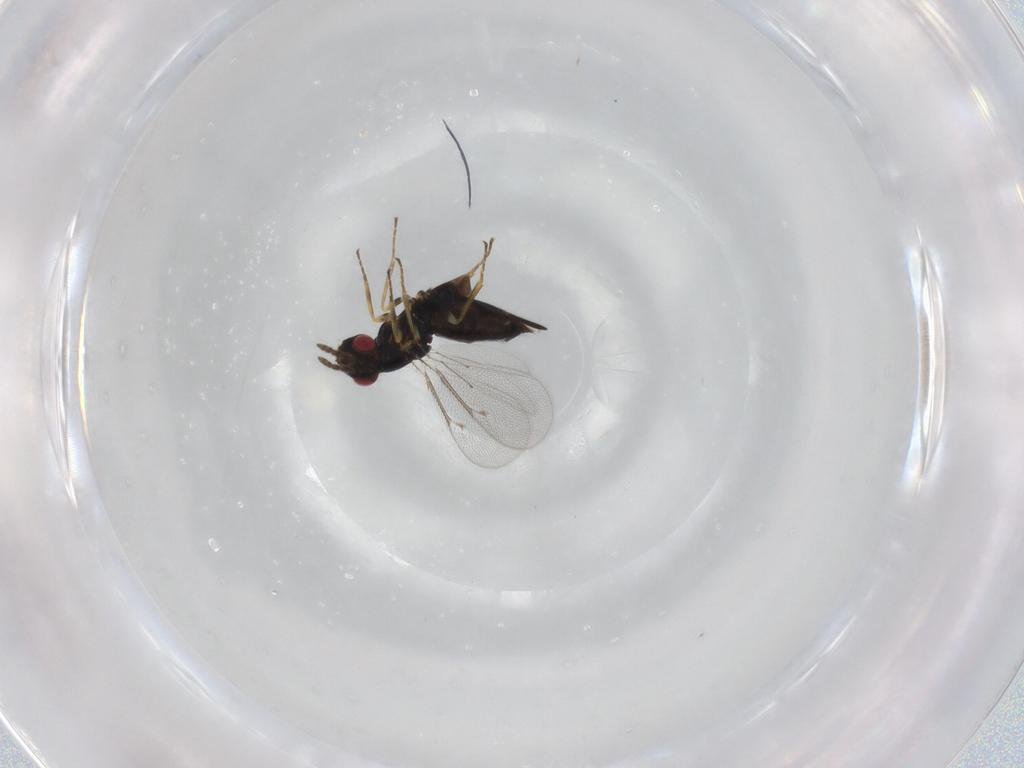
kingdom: Animalia
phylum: Arthropoda
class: Insecta
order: Hymenoptera
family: Eulophidae
